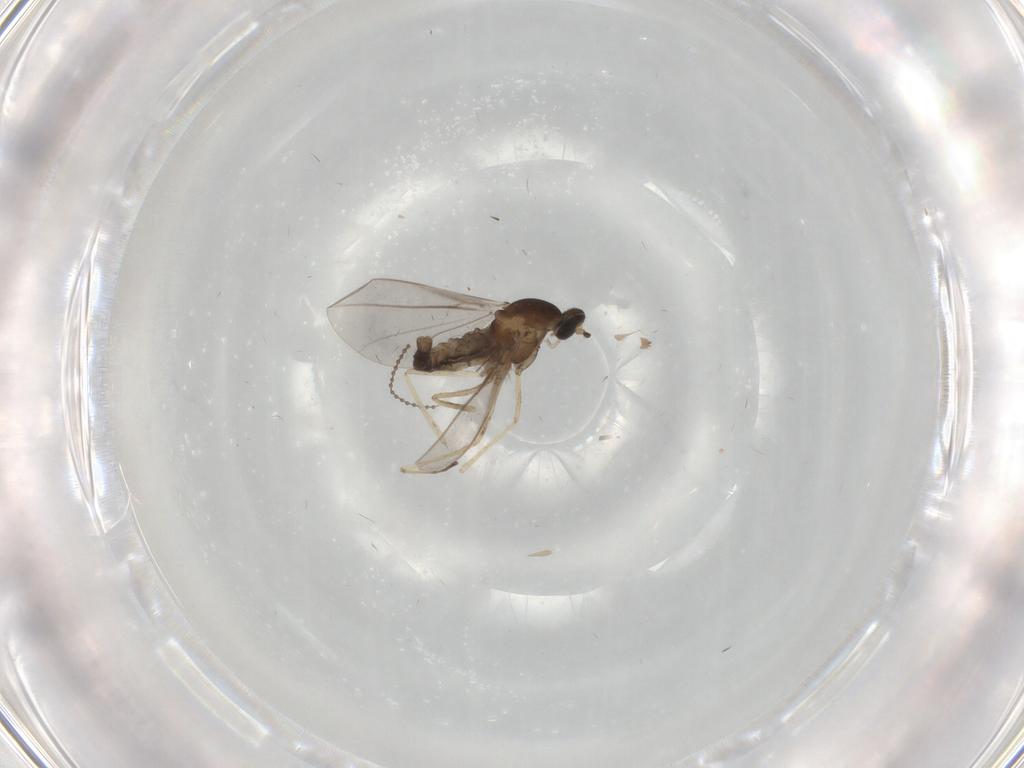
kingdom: Animalia
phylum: Arthropoda
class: Insecta
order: Diptera
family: Cecidomyiidae
